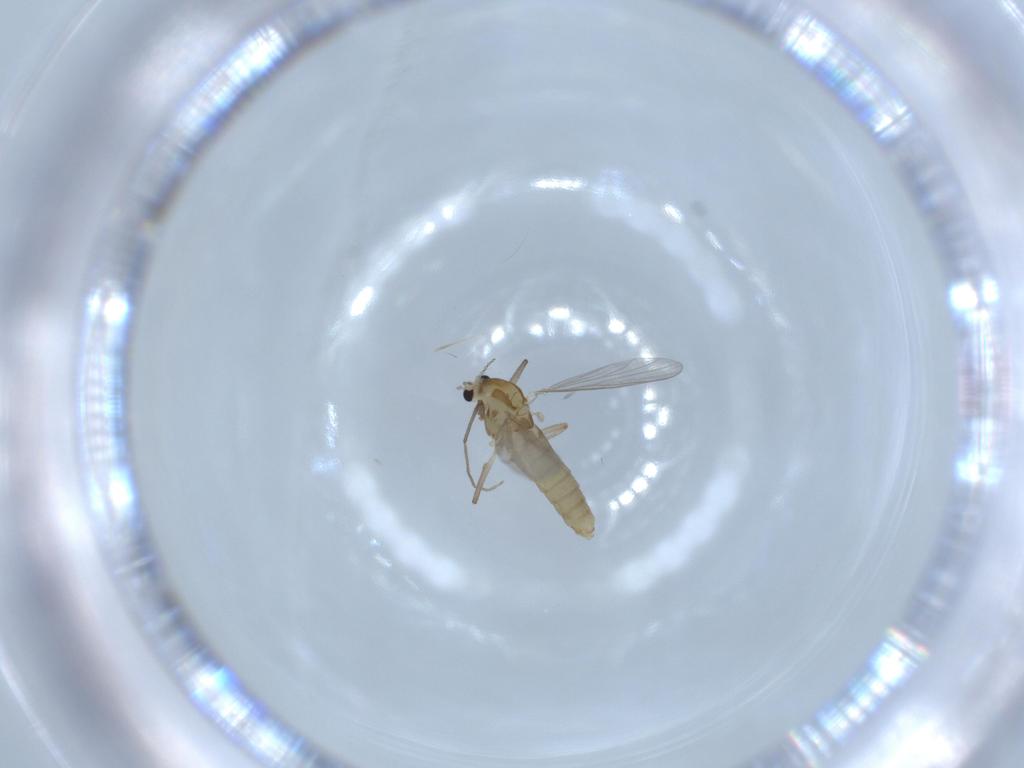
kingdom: Animalia
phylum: Arthropoda
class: Insecta
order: Diptera
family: Chironomidae
